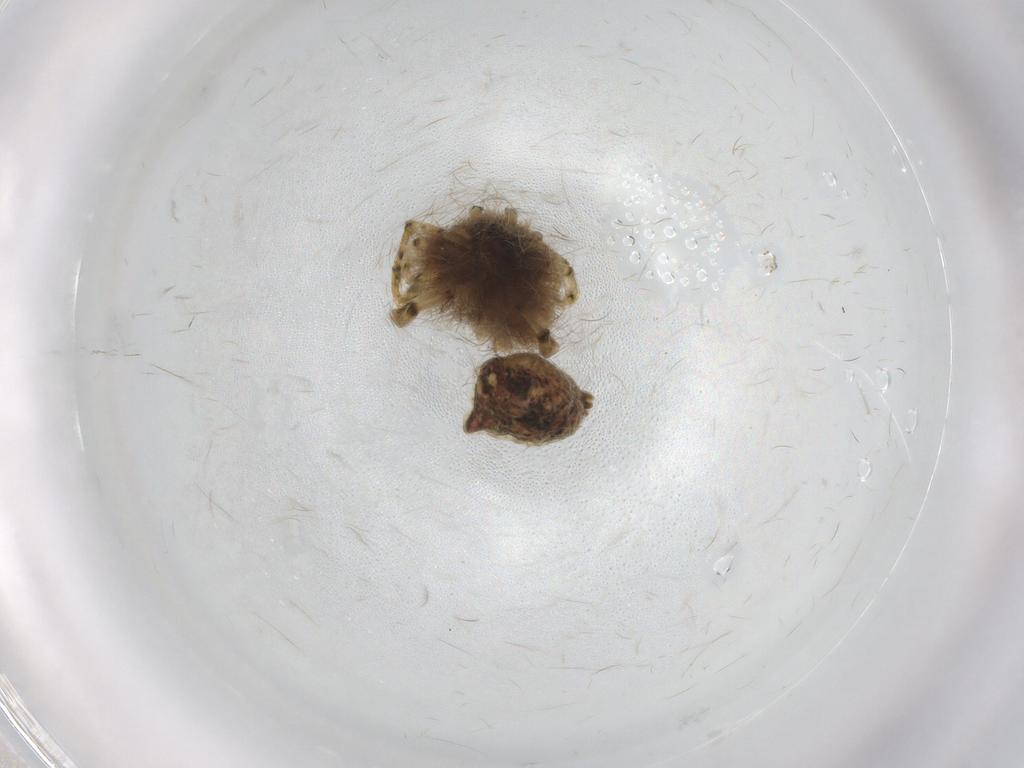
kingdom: Animalia
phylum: Arthropoda
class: Arachnida
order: Araneae
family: Araneidae
